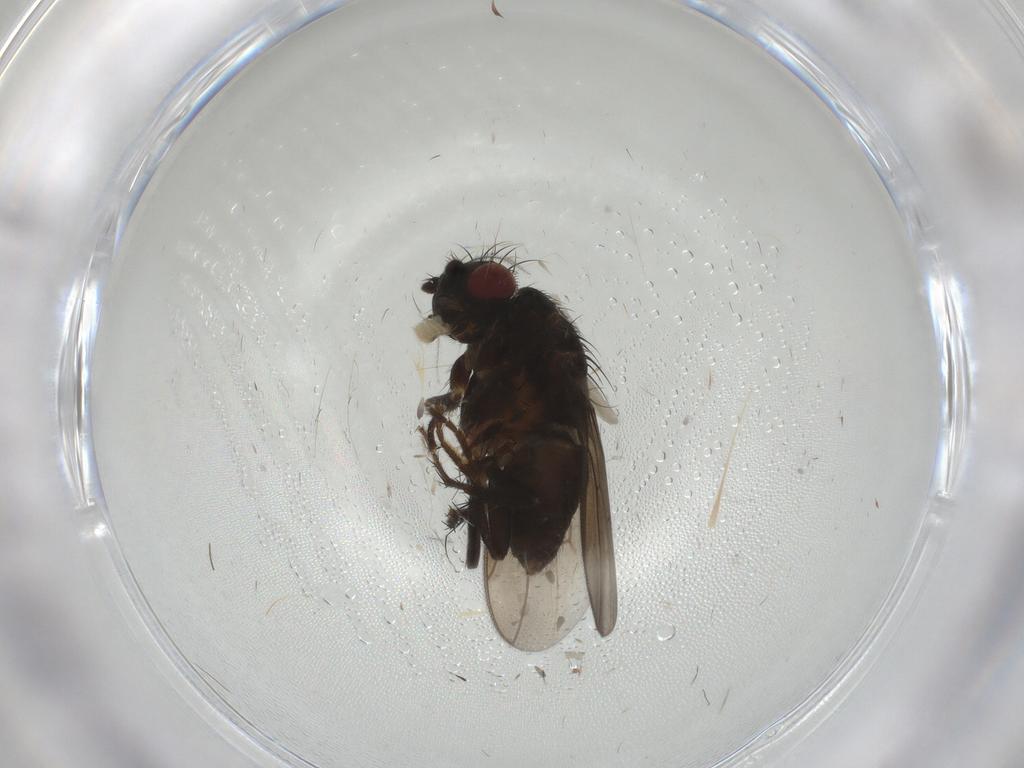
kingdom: Animalia
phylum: Arthropoda
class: Insecta
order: Diptera
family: Sphaeroceridae
